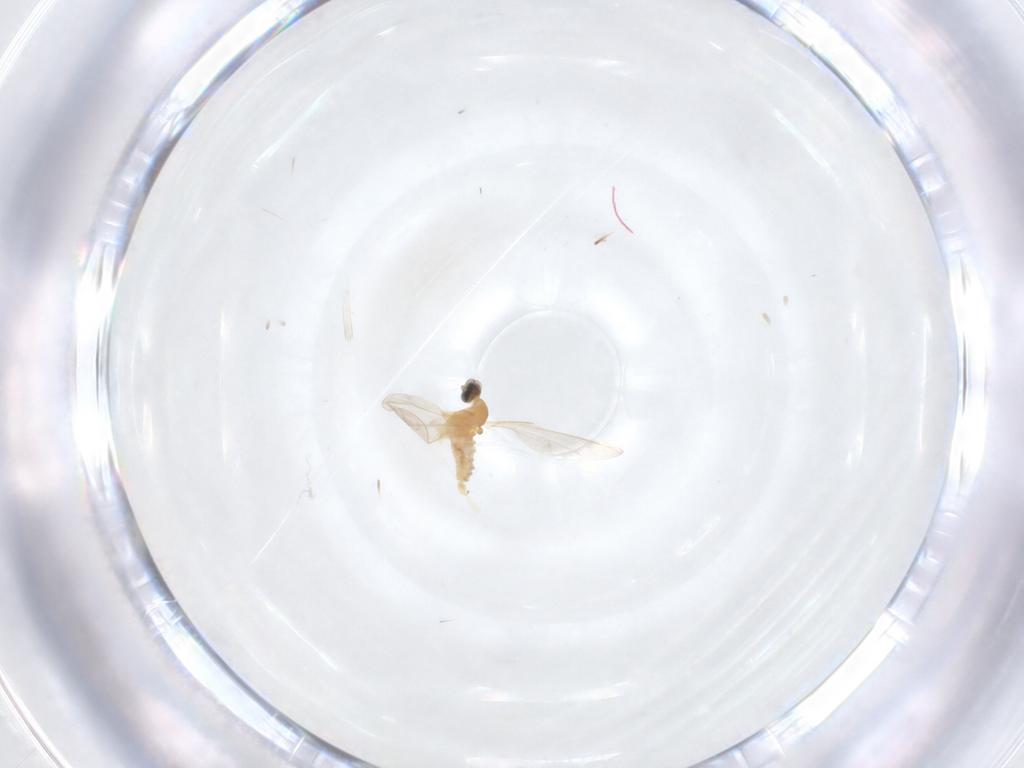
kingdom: Animalia
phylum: Arthropoda
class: Insecta
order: Diptera
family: Cecidomyiidae
